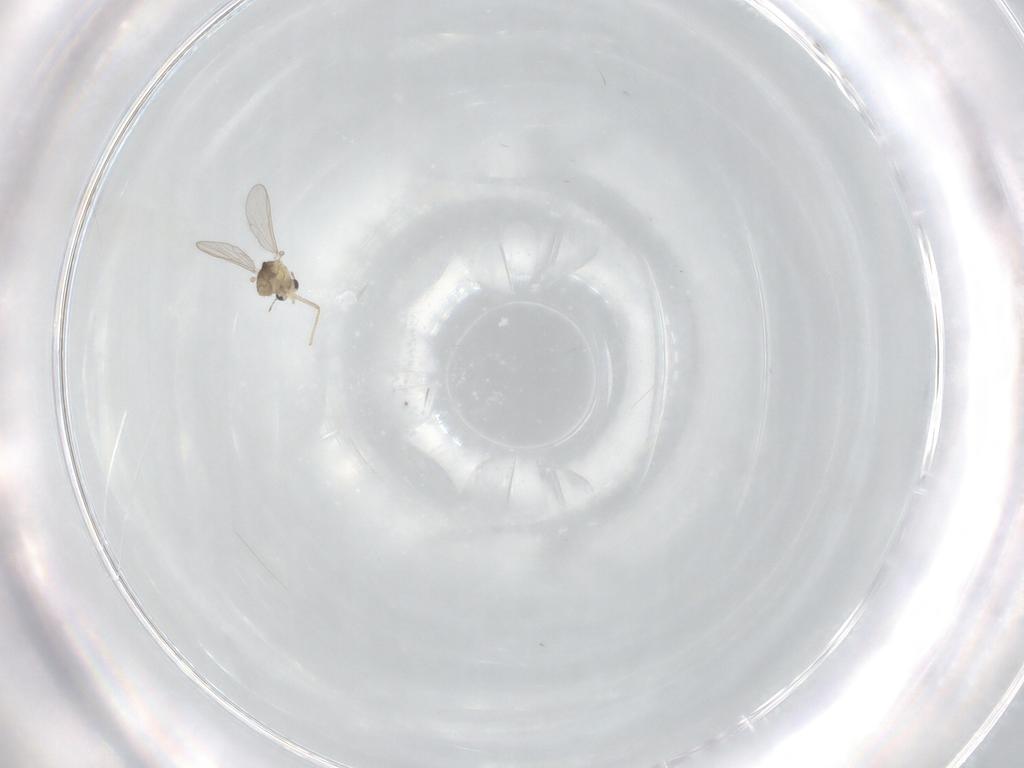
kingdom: Animalia
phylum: Arthropoda
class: Insecta
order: Diptera
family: Chironomidae
